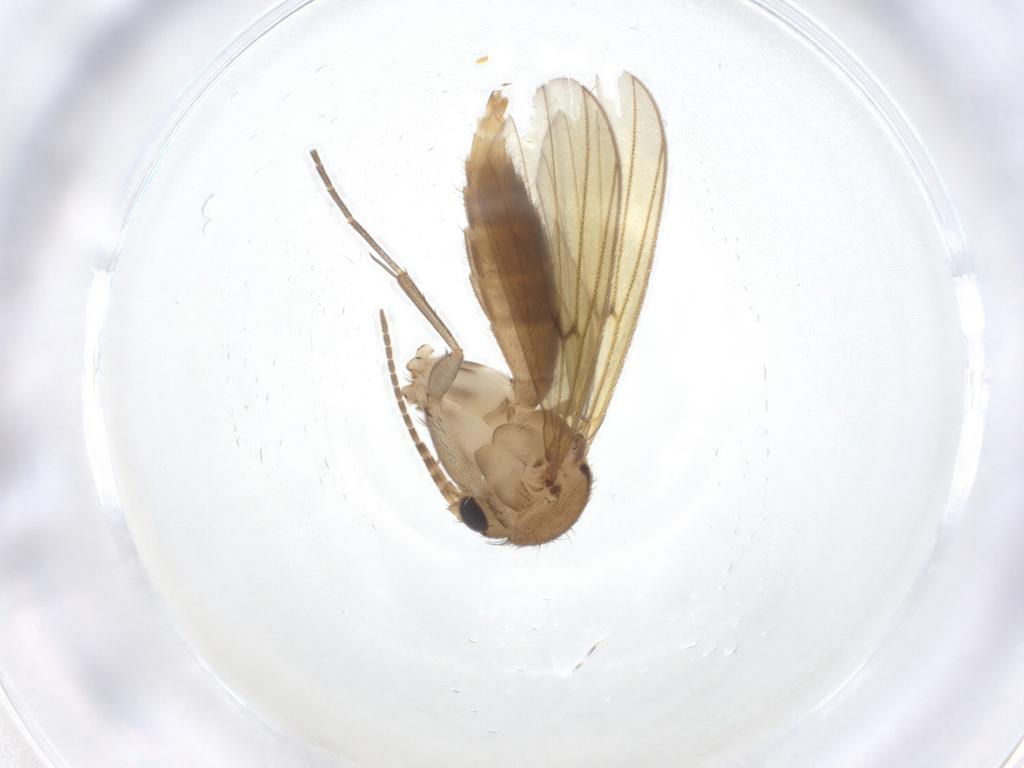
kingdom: Animalia
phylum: Arthropoda
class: Insecta
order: Diptera
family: Mycetophilidae
